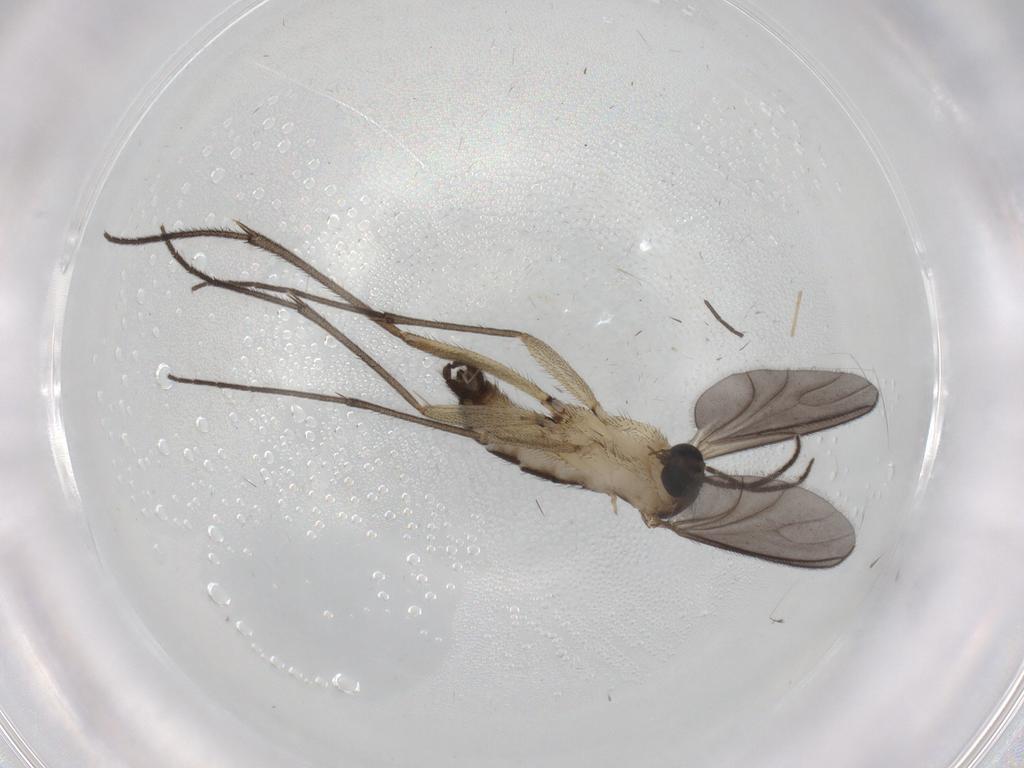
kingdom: Animalia
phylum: Arthropoda
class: Insecta
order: Diptera
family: Sciaridae
